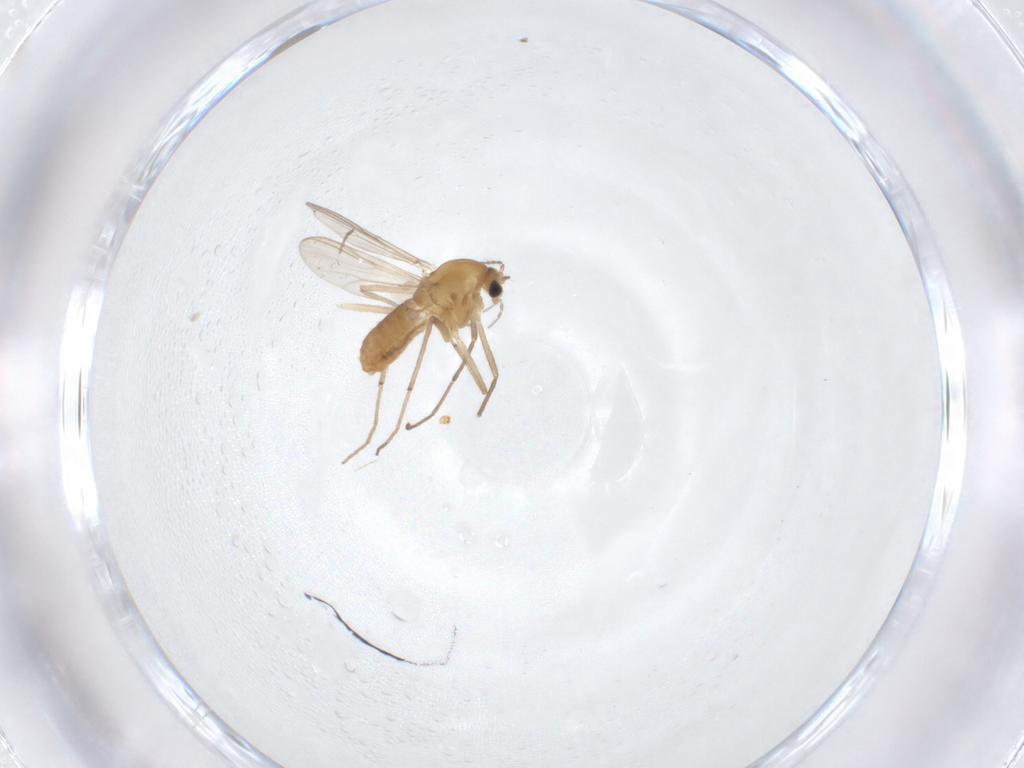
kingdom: Animalia
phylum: Arthropoda
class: Insecta
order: Diptera
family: Chironomidae
